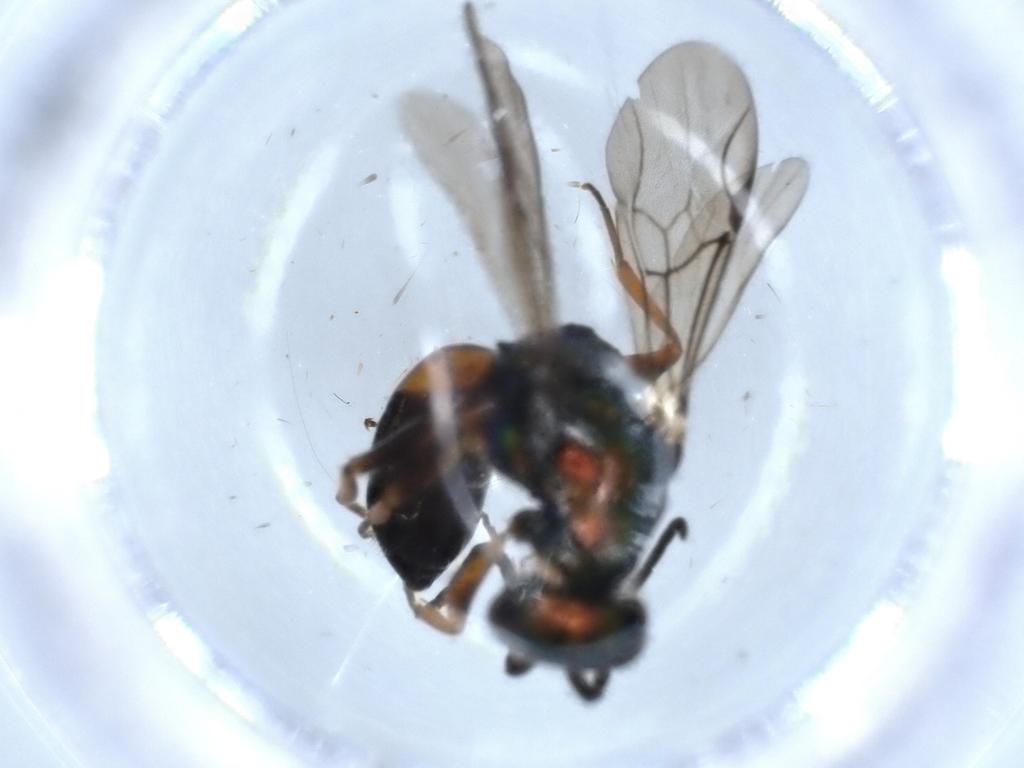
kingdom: Animalia
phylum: Arthropoda
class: Insecta
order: Hymenoptera
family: Chrysididae
